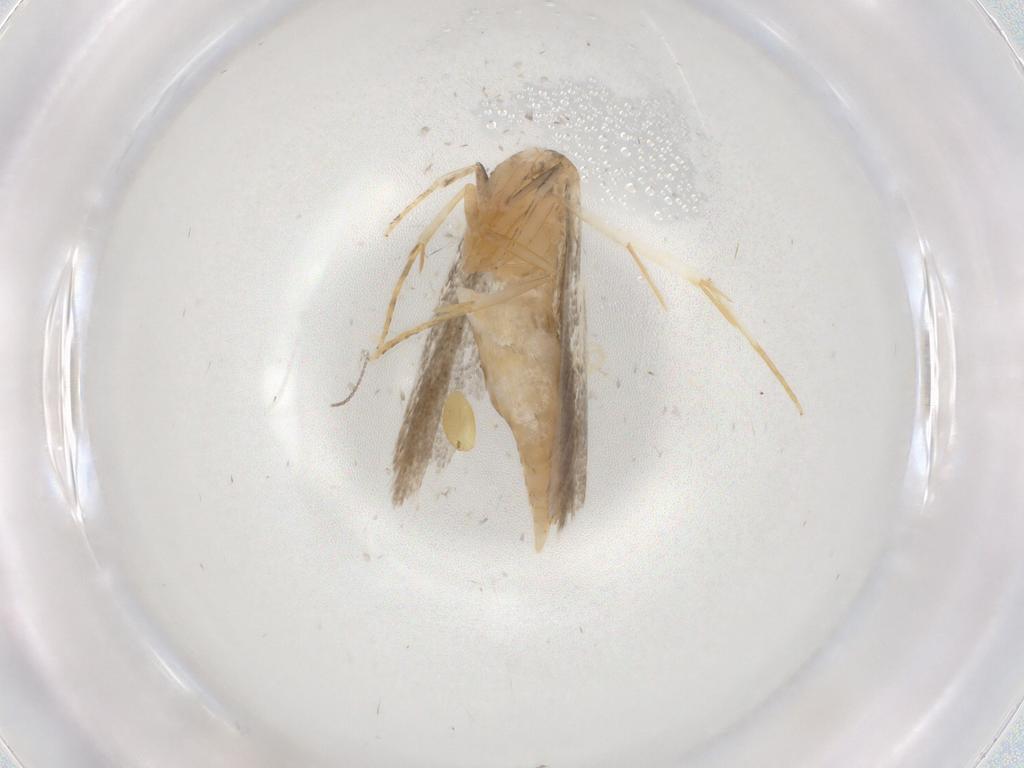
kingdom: Animalia
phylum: Arthropoda
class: Insecta
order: Lepidoptera
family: Autostichidae
